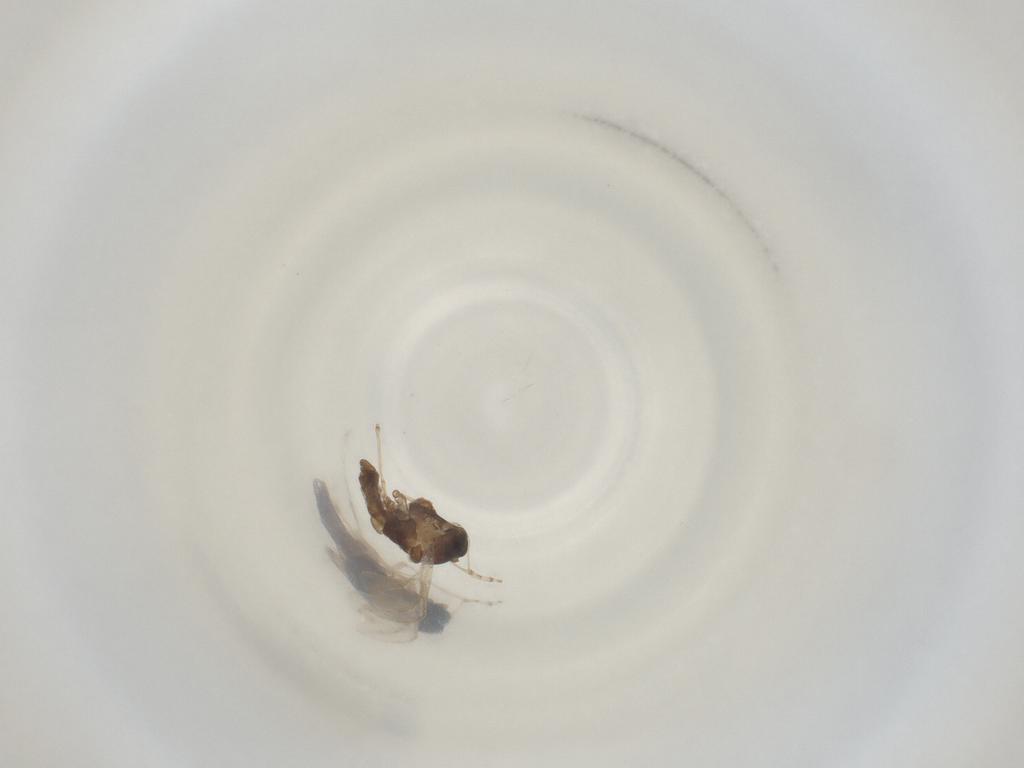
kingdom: Animalia
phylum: Arthropoda
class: Insecta
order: Diptera
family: Cecidomyiidae
